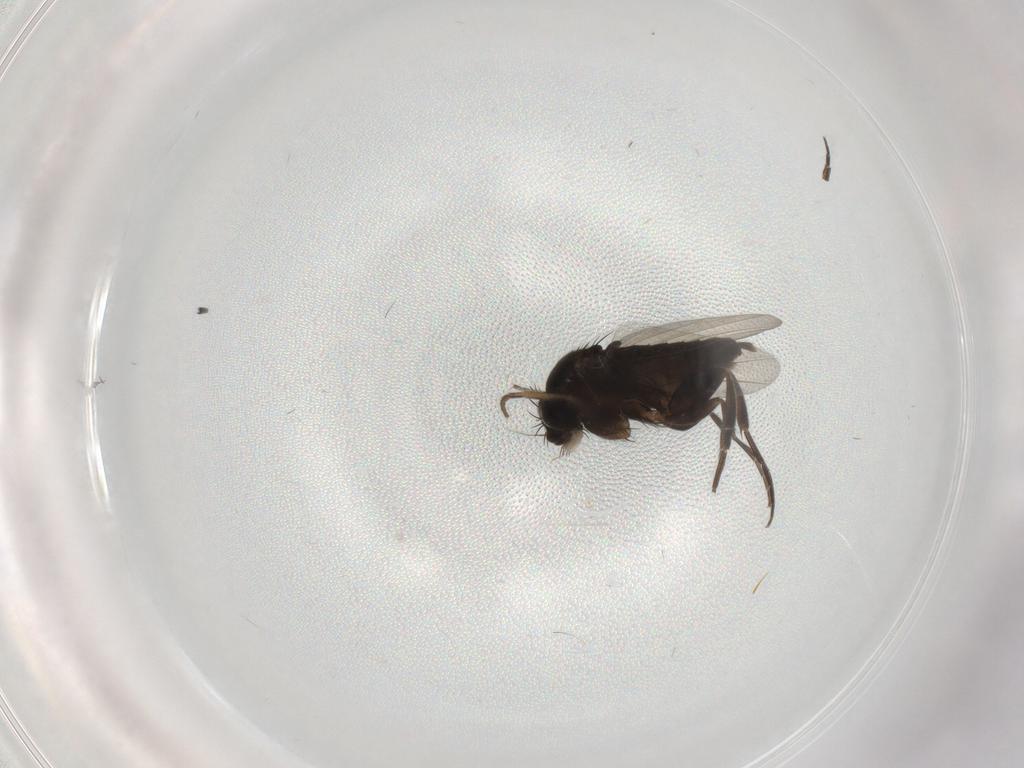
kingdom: Animalia
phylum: Arthropoda
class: Insecta
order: Diptera
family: Phoridae
